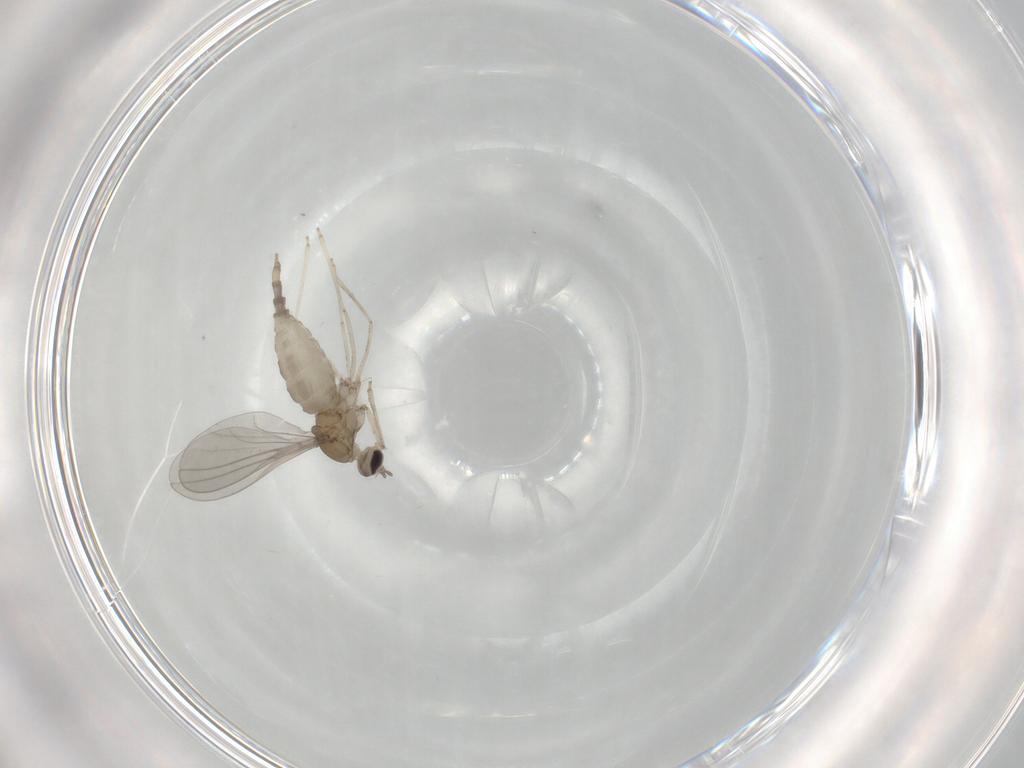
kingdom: Animalia
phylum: Arthropoda
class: Insecta
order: Diptera
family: Cecidomyiidae
